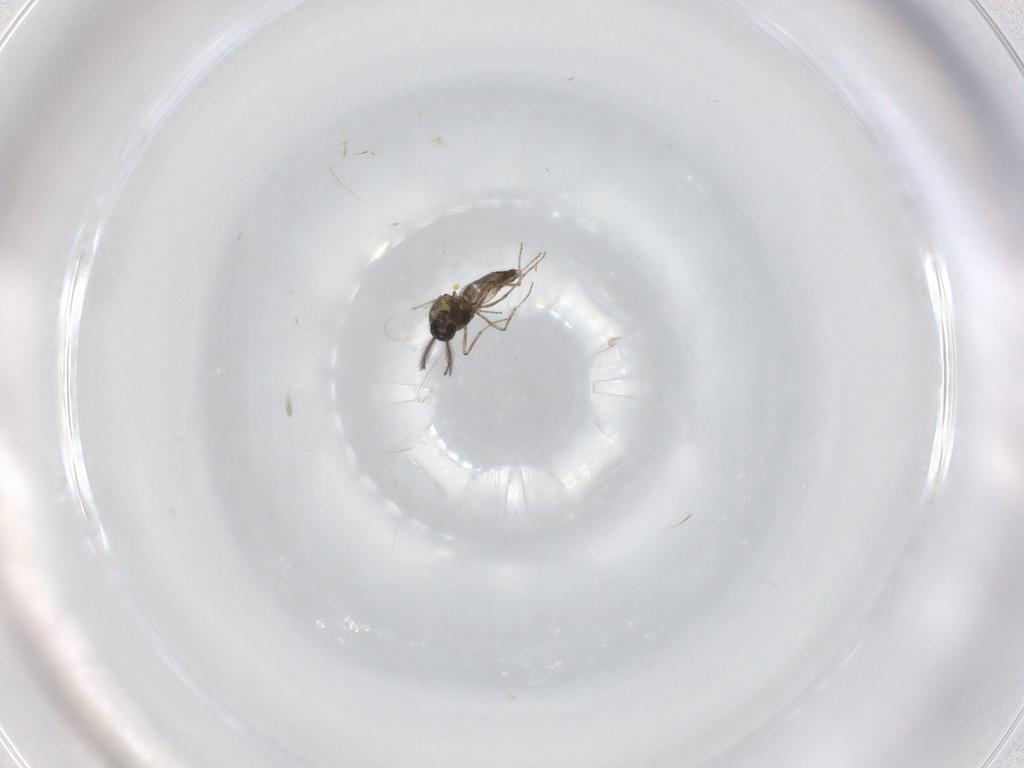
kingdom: Animalia
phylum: Arthropoda
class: Insecta
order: Diptera
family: Ceratopogonidae
